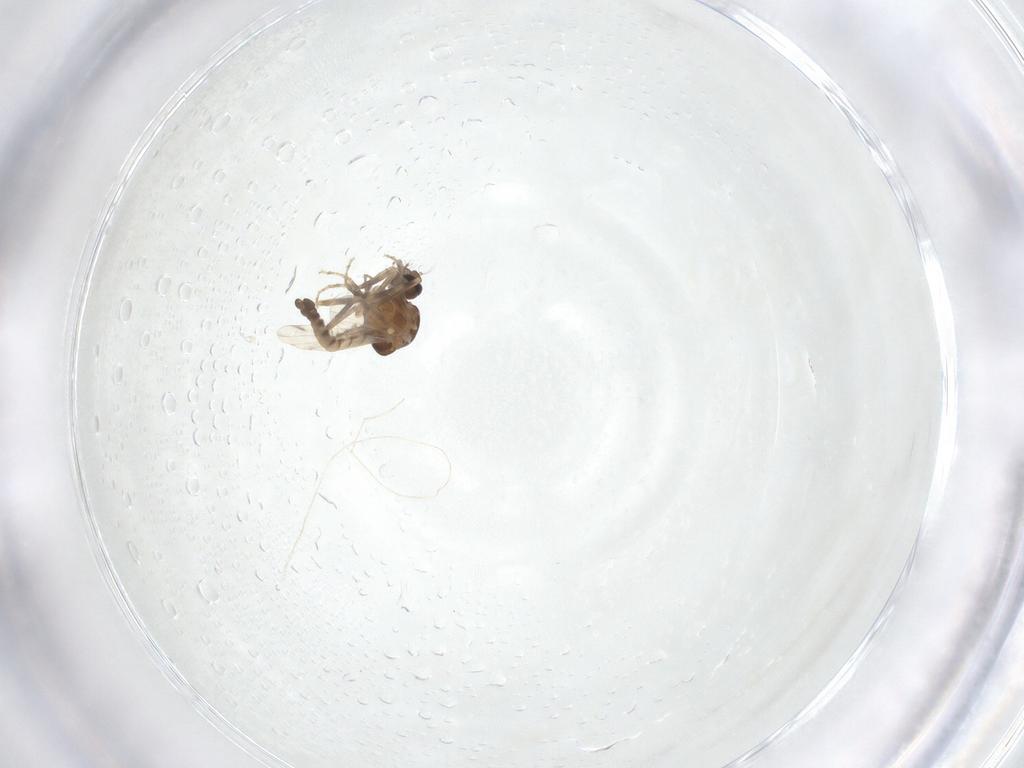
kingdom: Animalia
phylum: Arthropoda
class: Insecta
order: Diptera
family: Ceratopogonidae
